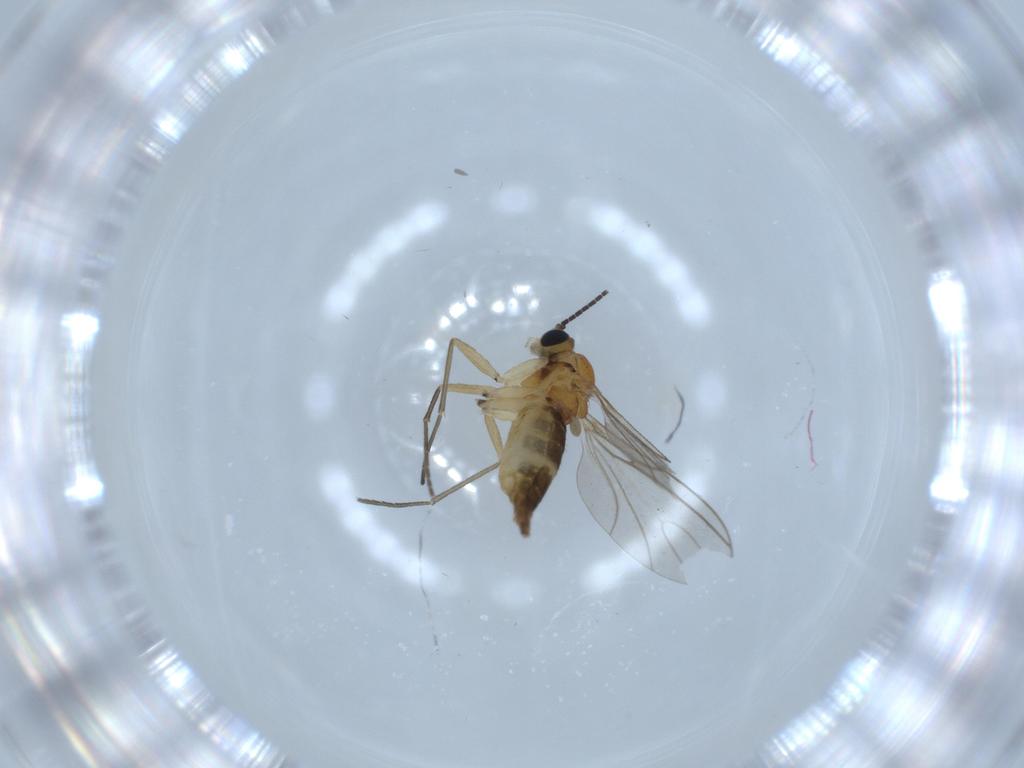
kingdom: Animalia
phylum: Arthropoda
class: Insecta
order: Diptera
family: Sciaridae
